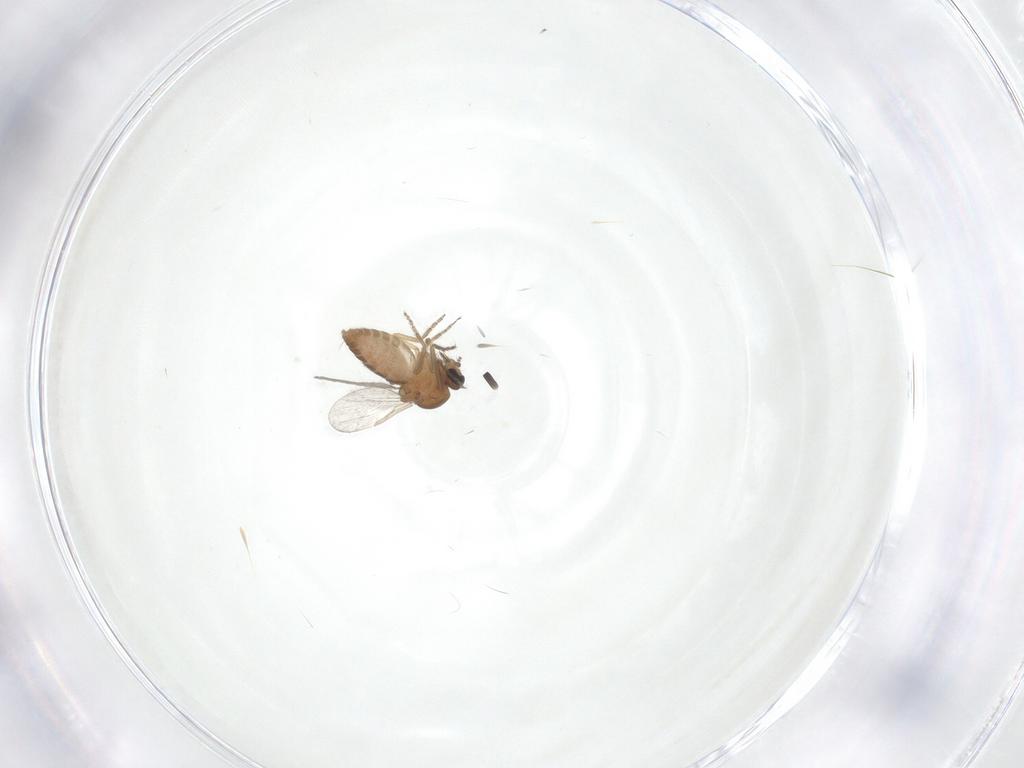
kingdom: Animalia
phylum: Arthropoda
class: Insecta
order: Diptera
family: Ceratopogonidae
